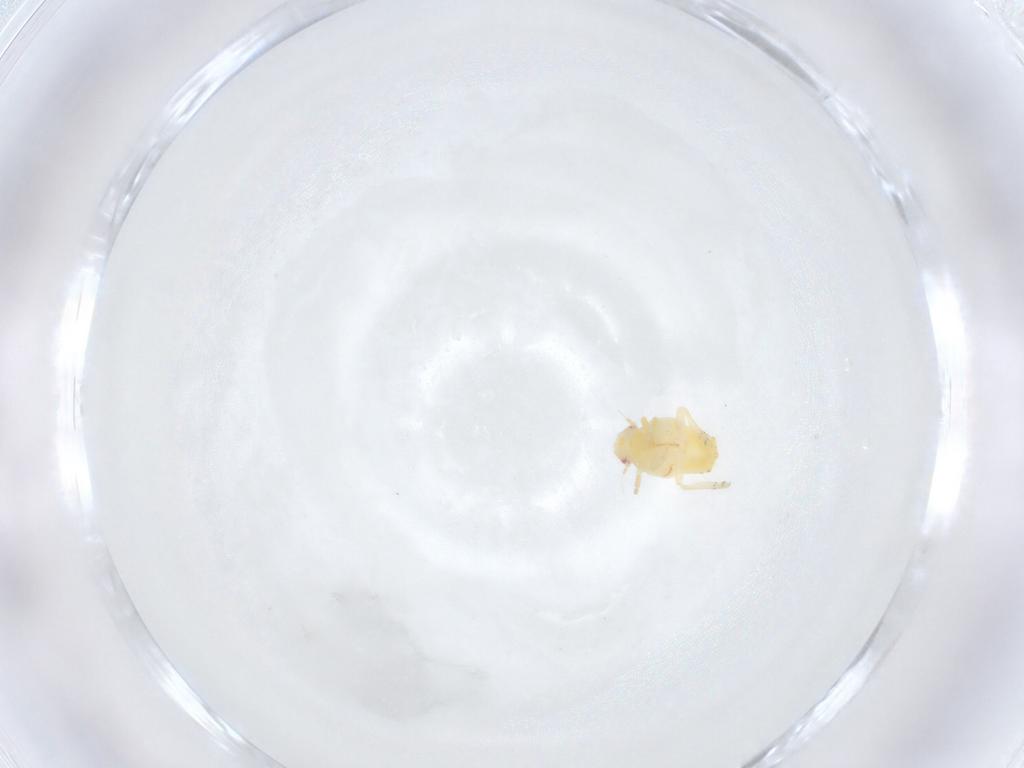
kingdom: Animalia
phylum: Arthropoda
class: Insecta
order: Hemiptera
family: Flatidae
